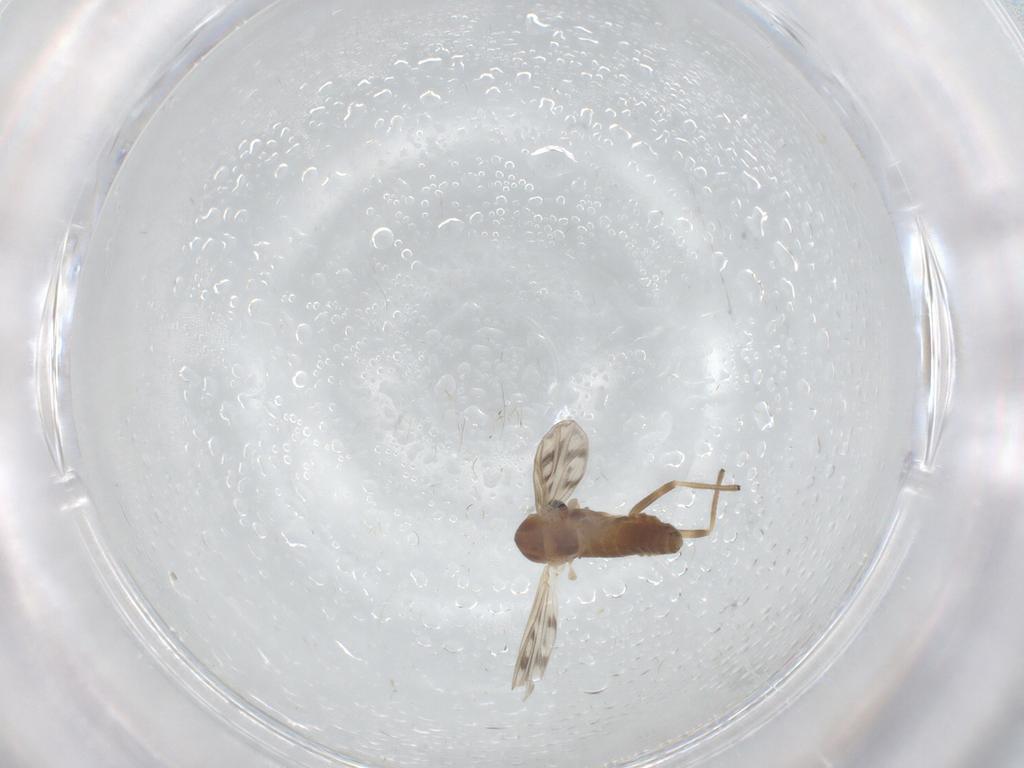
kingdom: Animalia
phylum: Arthropoda
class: Insecta
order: Diptera
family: Chironomidae
